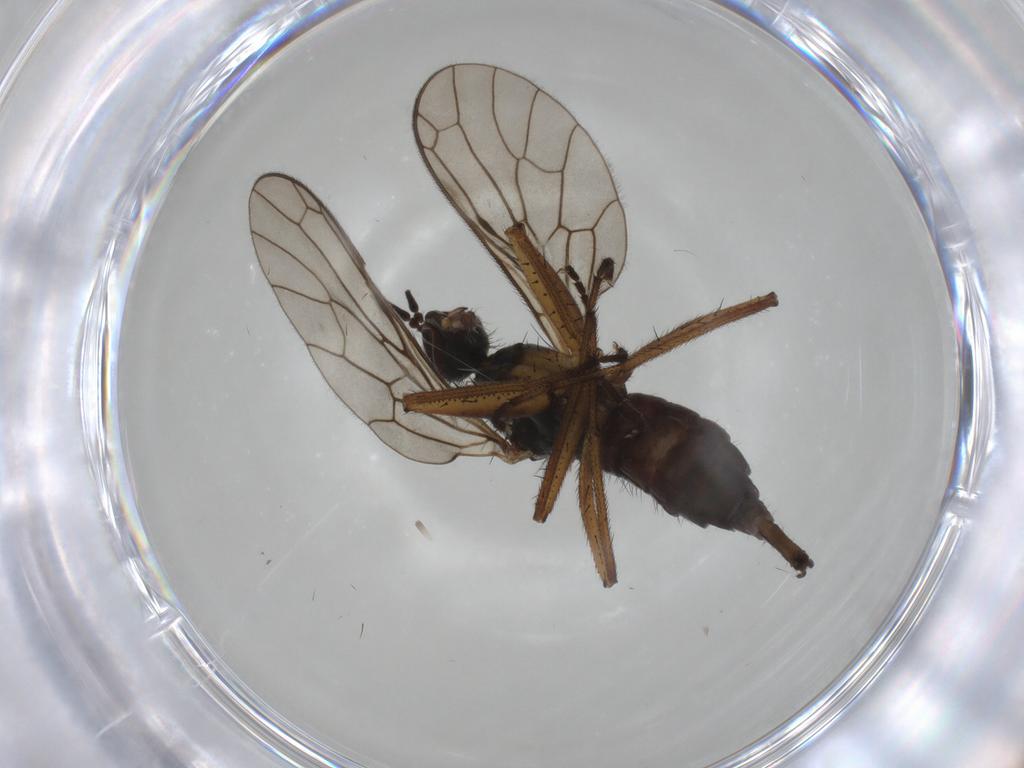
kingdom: Animalia
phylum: Arthropoda
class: Insecta
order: Diptera
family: Empididae
